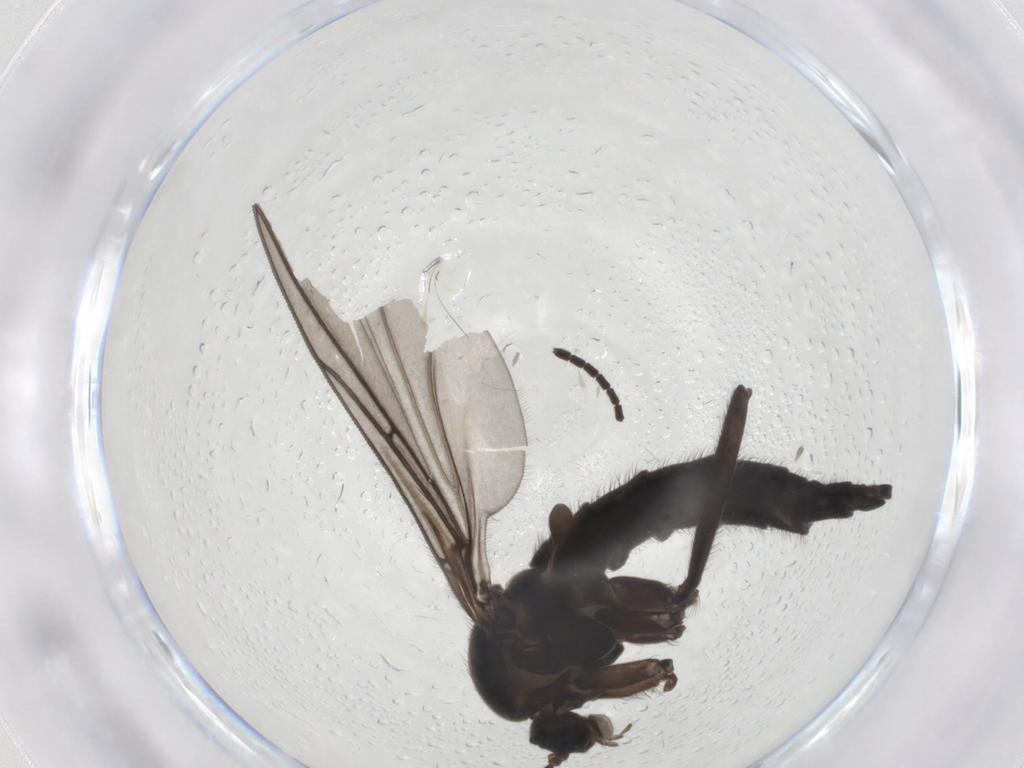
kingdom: Animalia
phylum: Arthropoda
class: Insecta
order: Diptera
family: Sciaridae
